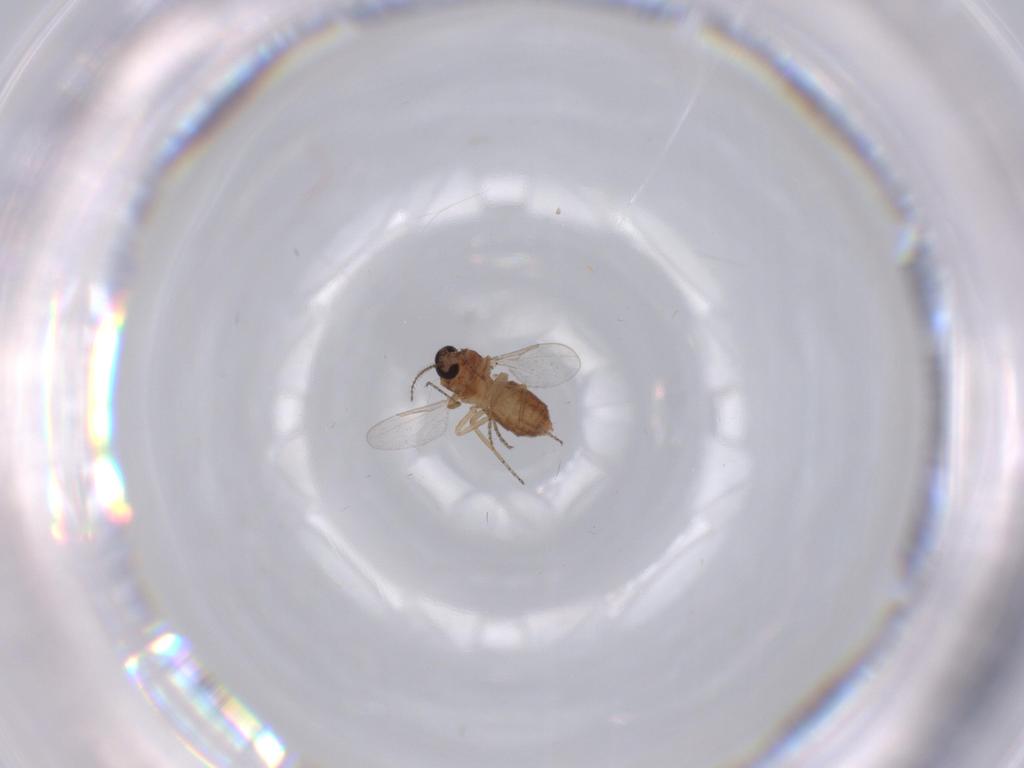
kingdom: Animalia
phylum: Arthropoda
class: Insecta
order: Diptera
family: Ceratopogonidae
